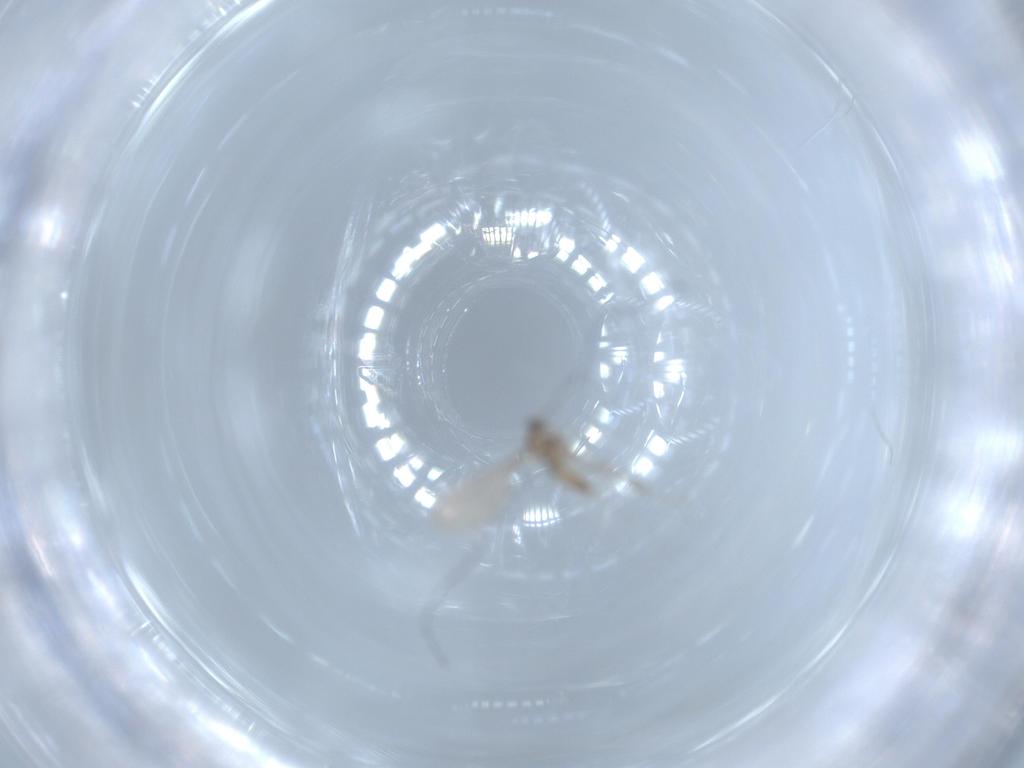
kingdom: Animalia
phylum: Arthropoda
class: Insecta
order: Diptera
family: Cecidomyiidae
